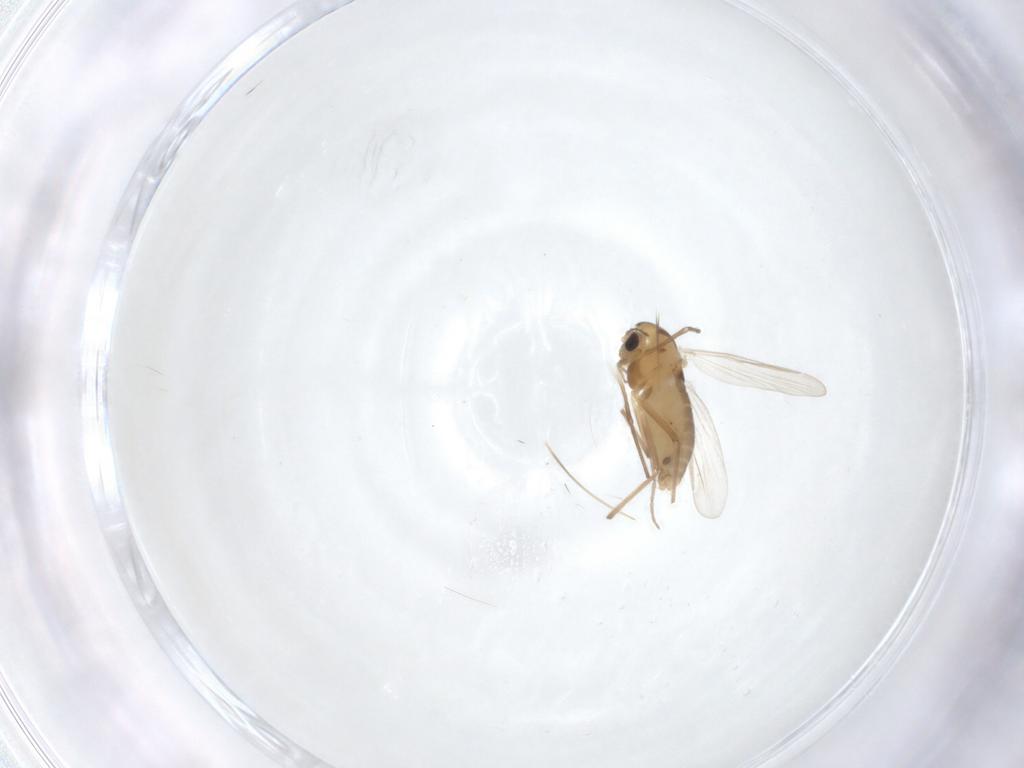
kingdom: Animalia
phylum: Arthropoda
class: Insecta
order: Diptera
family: Chironomidae
